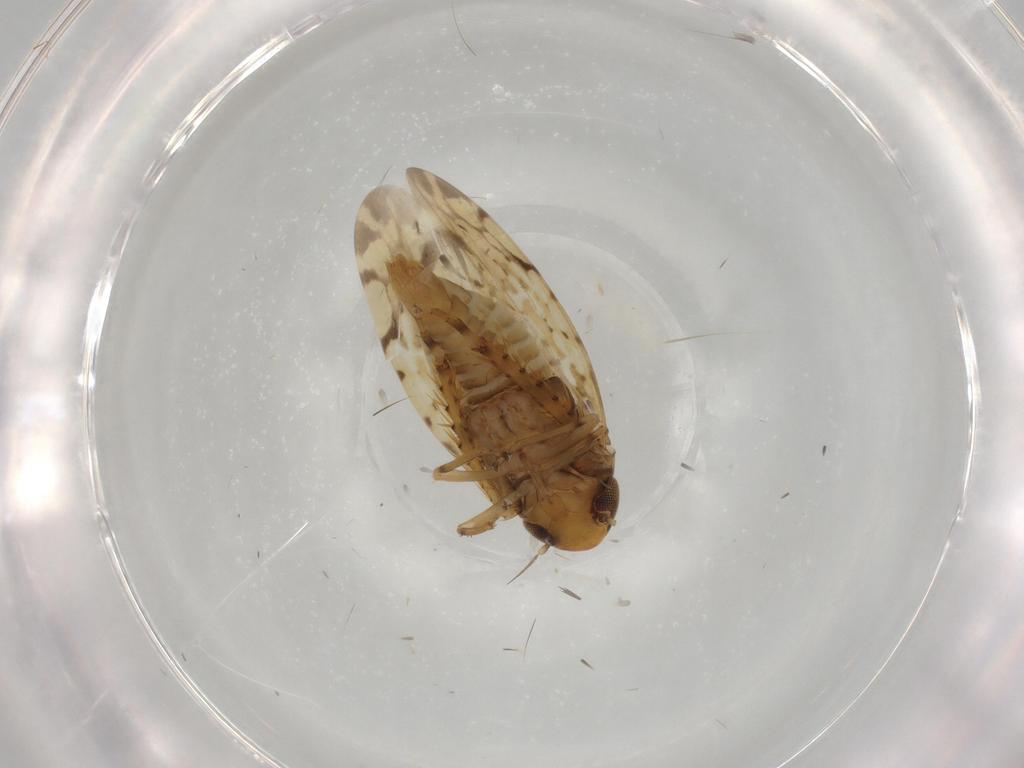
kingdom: Animalia
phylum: Arthropoda
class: Insecta
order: Hemiptera
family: Cicadellidae
